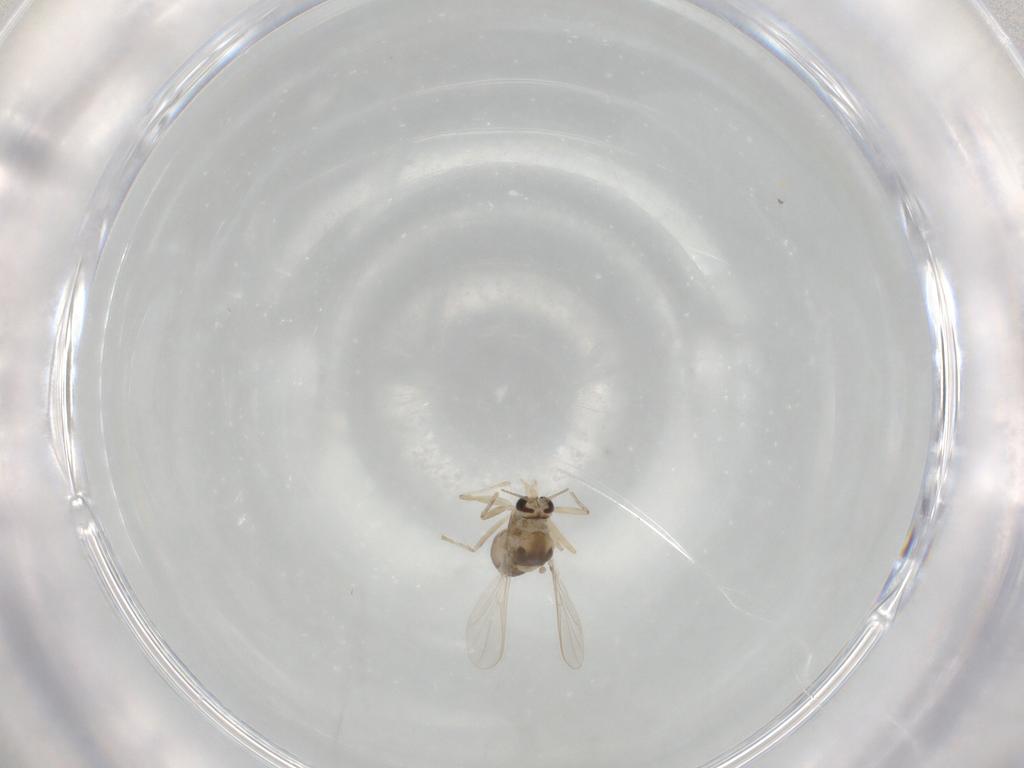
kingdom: Animalia
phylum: Arthropoda
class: Insecta
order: Diptera
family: Chironomidae
